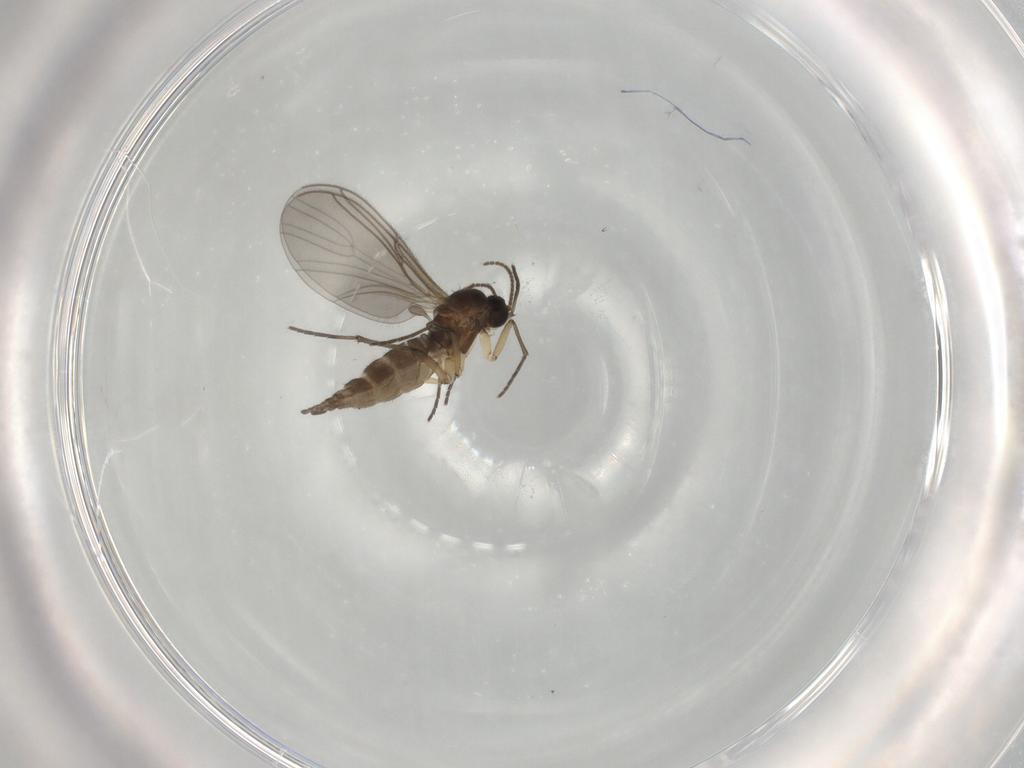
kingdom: Animalia
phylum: Arthropoda
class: Insecta
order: Diptera
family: Sciaridae
